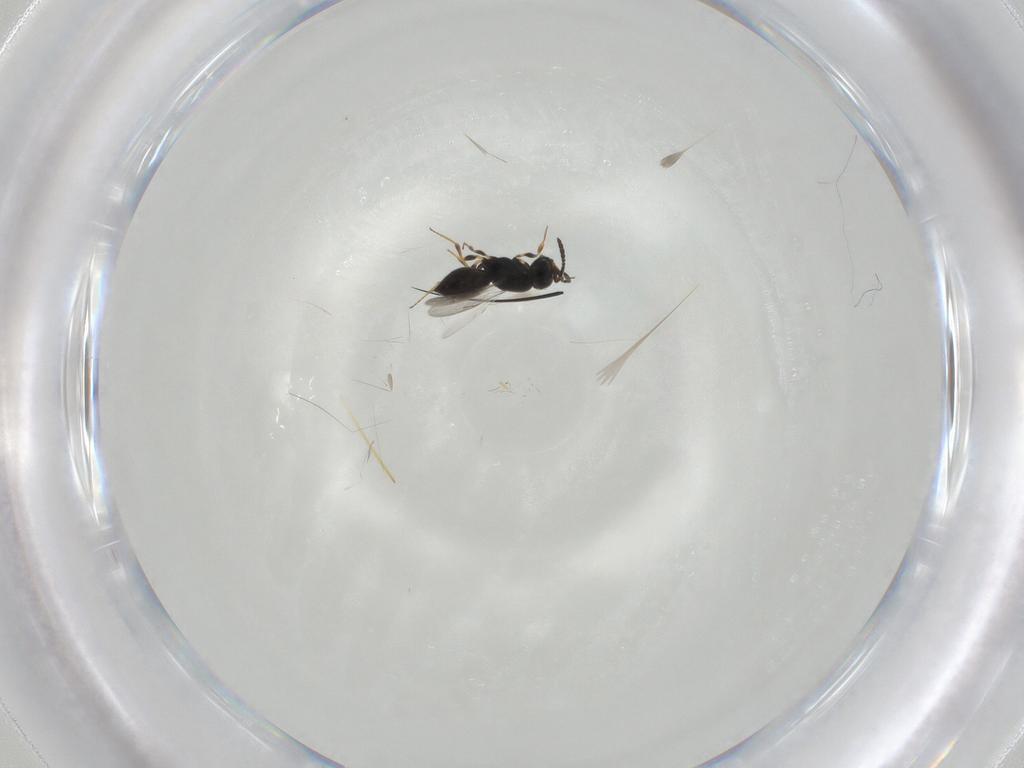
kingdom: Animalia
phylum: Arthropoda
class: Insecta
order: Hymenoptera
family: Scelionidae
